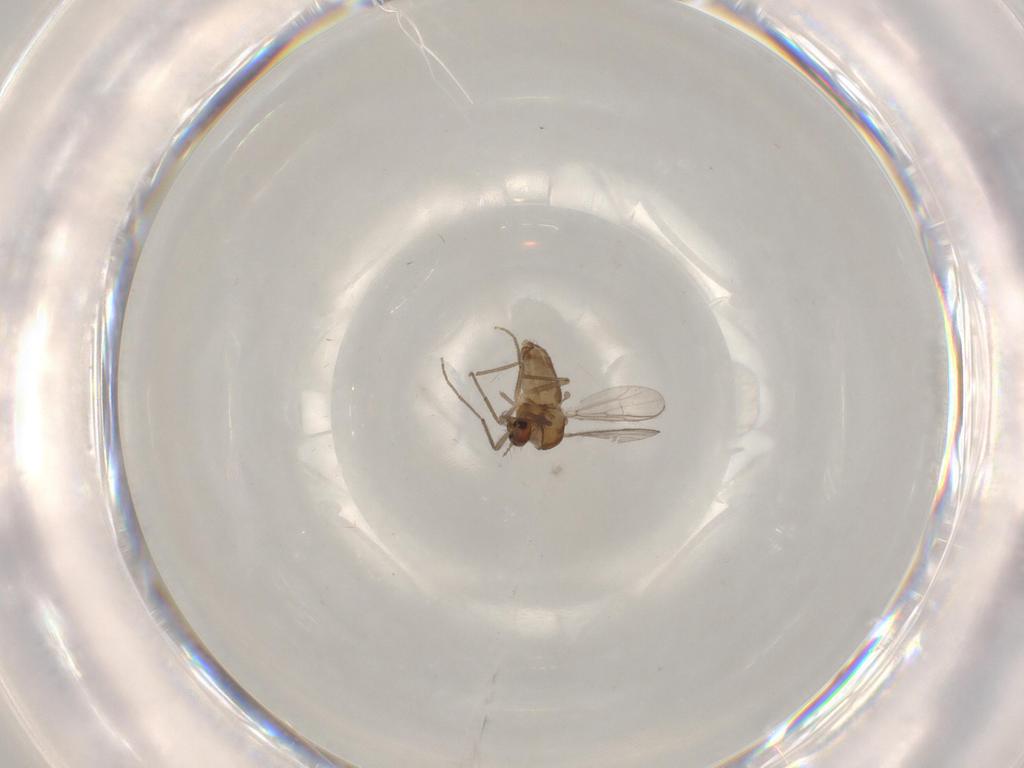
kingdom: Animalia
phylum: Arthropoda
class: Insecta
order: Diptera
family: Chironomidae
